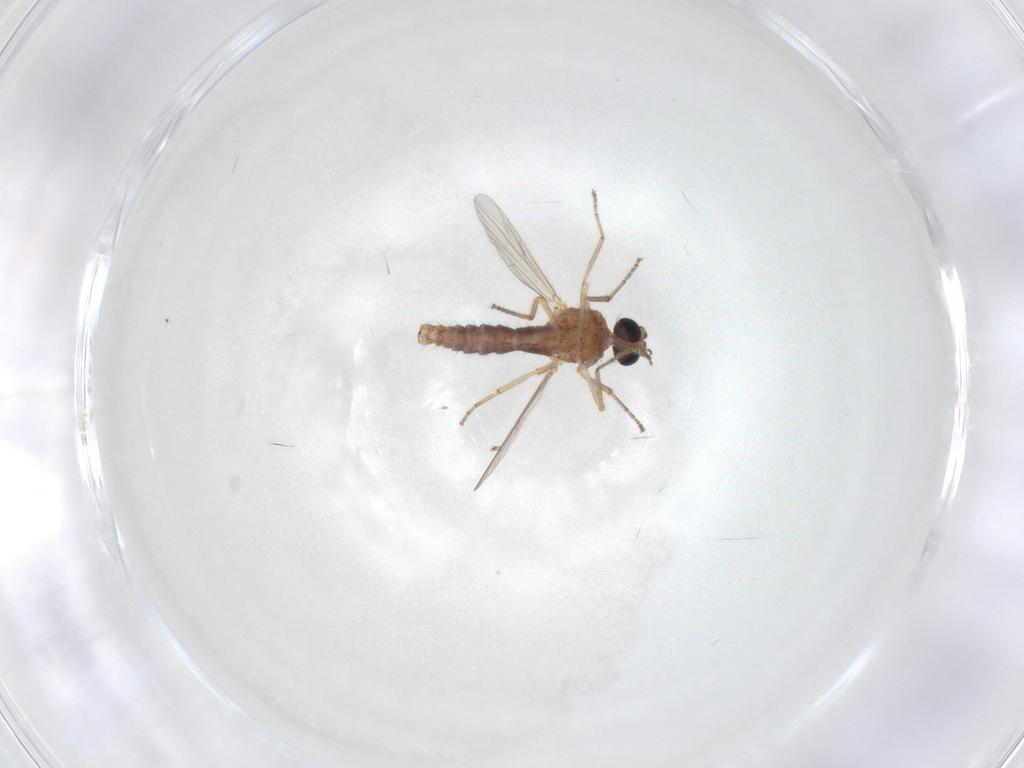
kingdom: Animalia
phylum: Arthropoda
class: Insecta
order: Diptera
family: Ceratopogonidae
